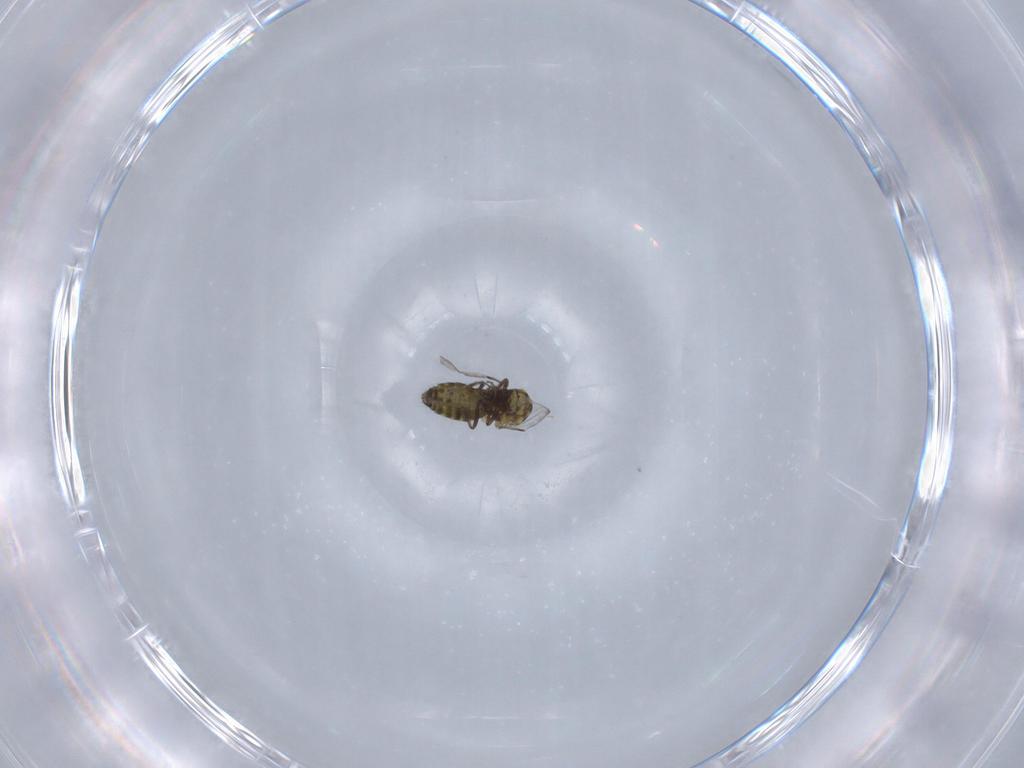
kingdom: Animalia
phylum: Arthropoda
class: Insecta
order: Diptera
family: Ceratopogonidae
